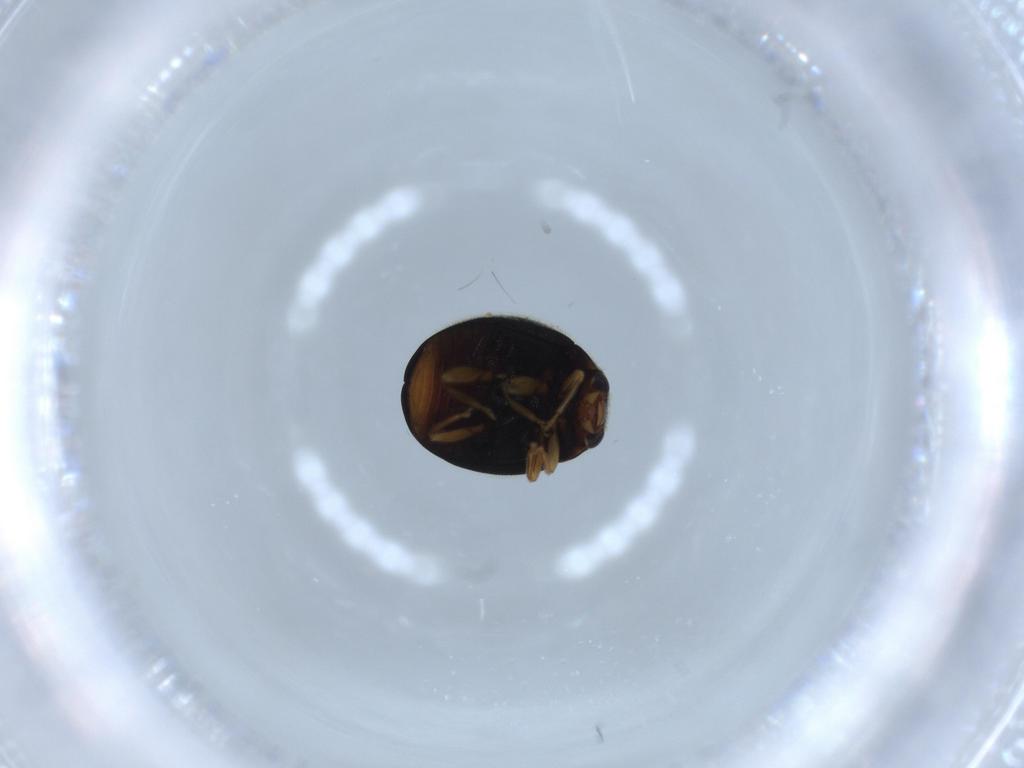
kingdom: Animalia
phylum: Arthropoda
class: Insecta
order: Coleoptera
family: Coccinellidae
